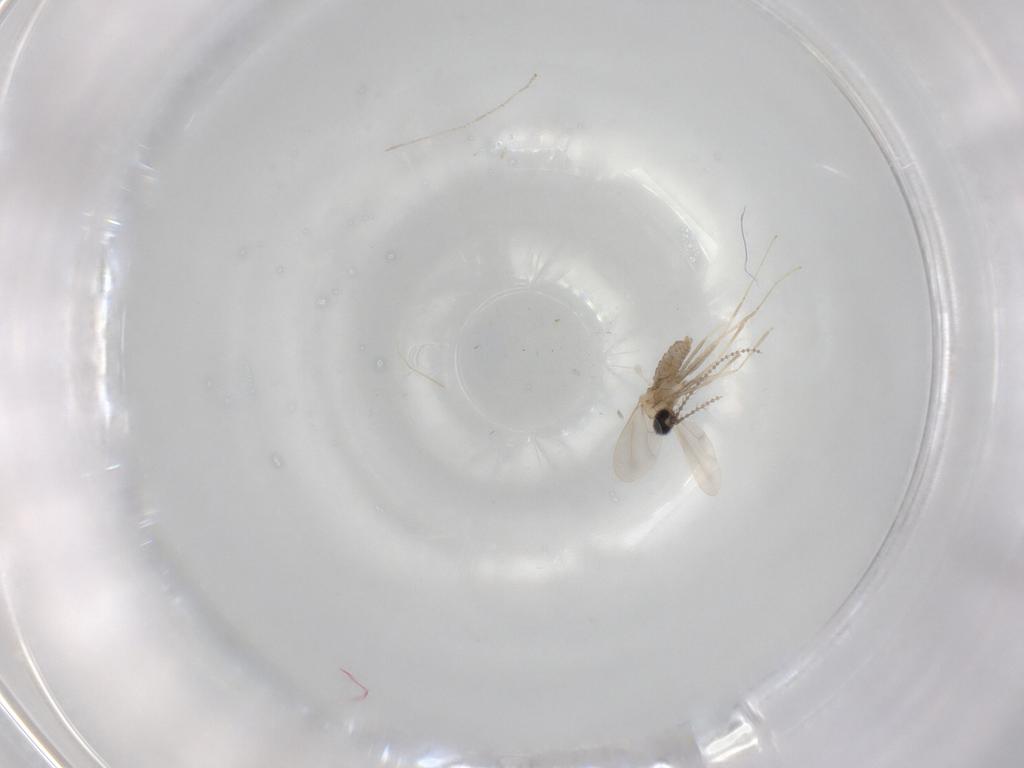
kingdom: Animalia
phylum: Arthropoda
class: Insecta
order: Diptera
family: Cecidomyiidae
